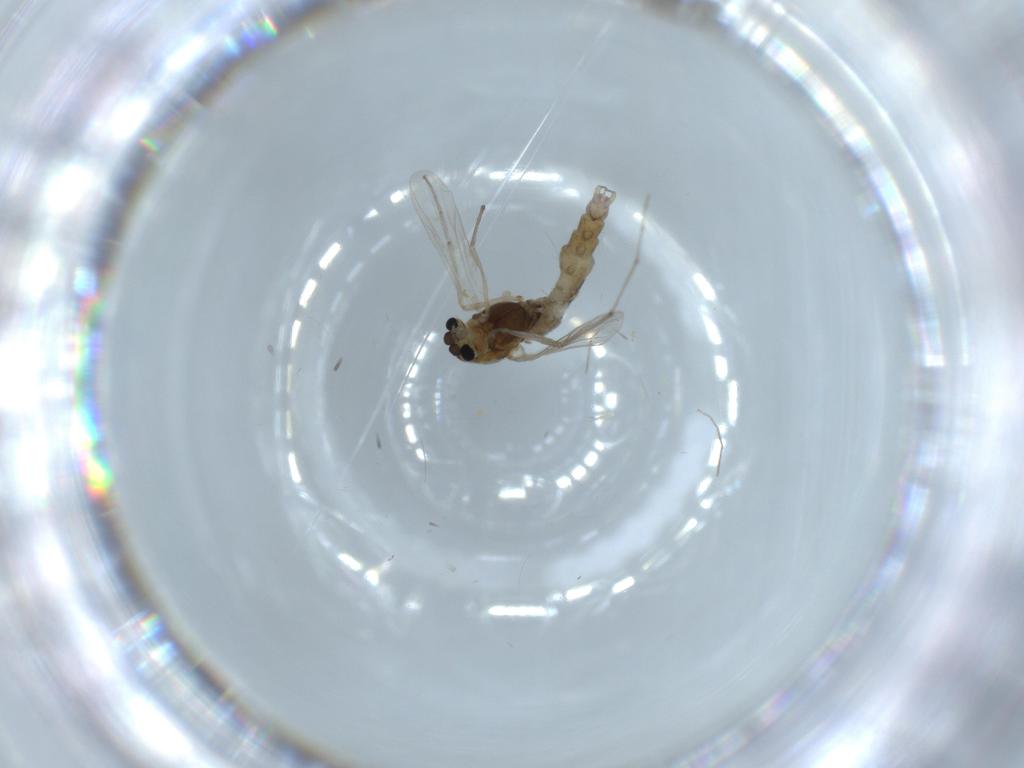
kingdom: Animalia
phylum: Arthropoda
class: Insecta
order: Diptera
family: Chironomidae
